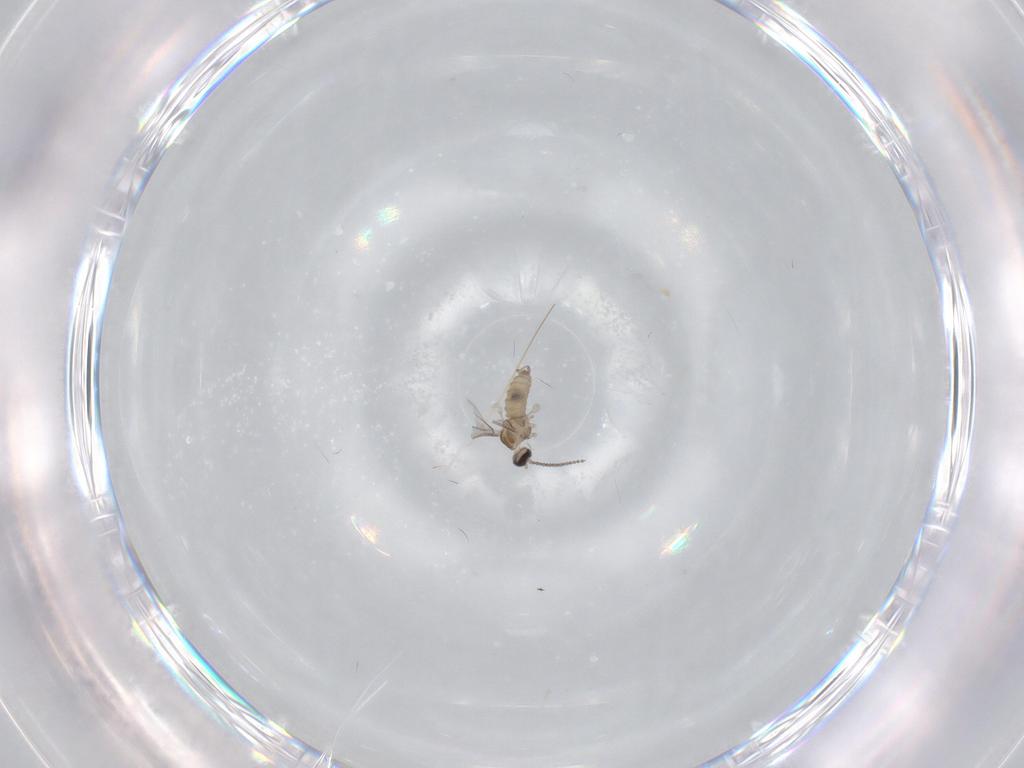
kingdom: Animalia
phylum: Arthropoda
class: Insecta
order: Diptera
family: Cecidomyiidae
